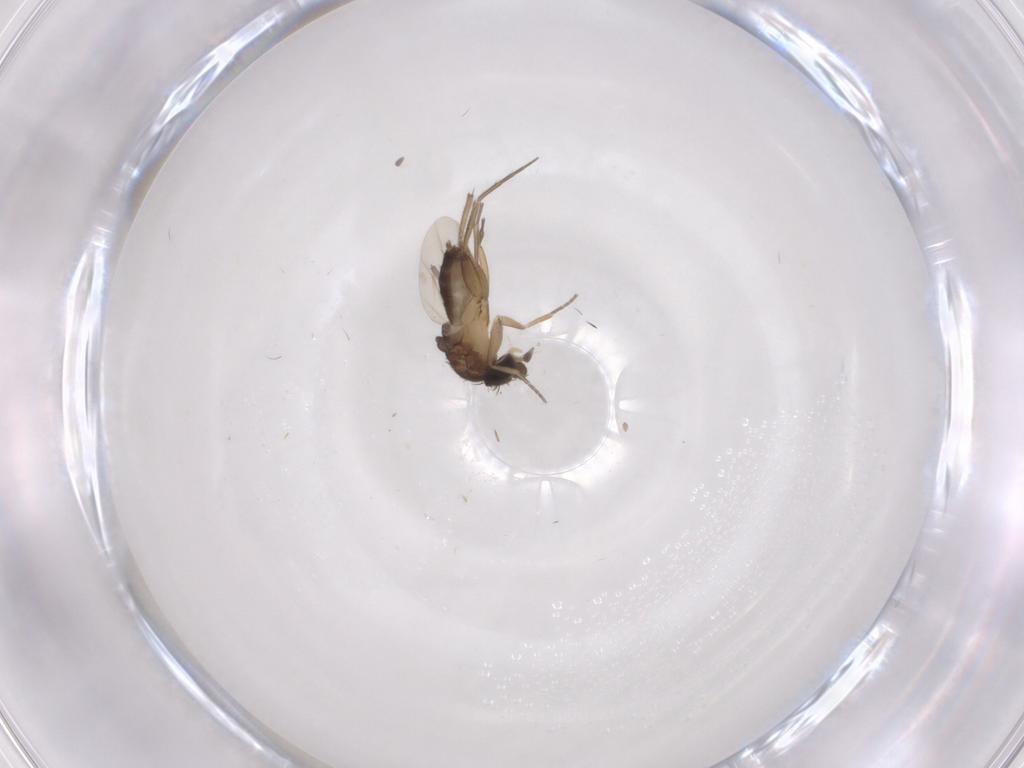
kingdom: Animalia
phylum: Arthropoda
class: Insecta
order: Diptera
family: Phoridae
